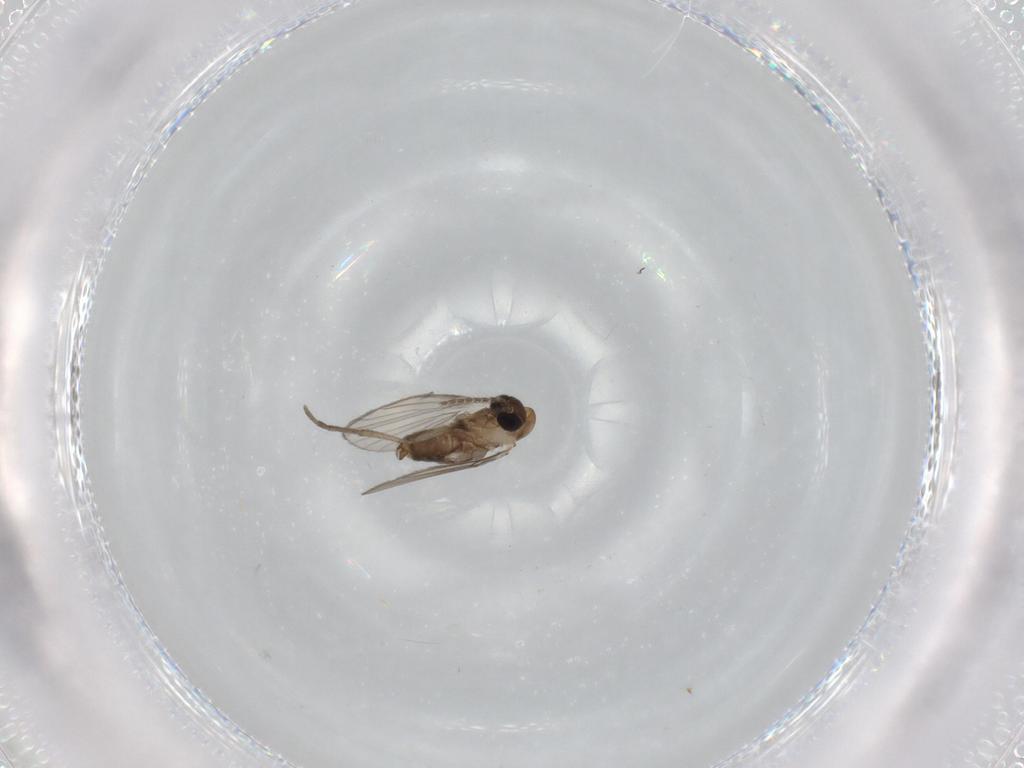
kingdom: Animalia
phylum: Arthropoda
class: Insecta
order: Diptera
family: Psychodidae
